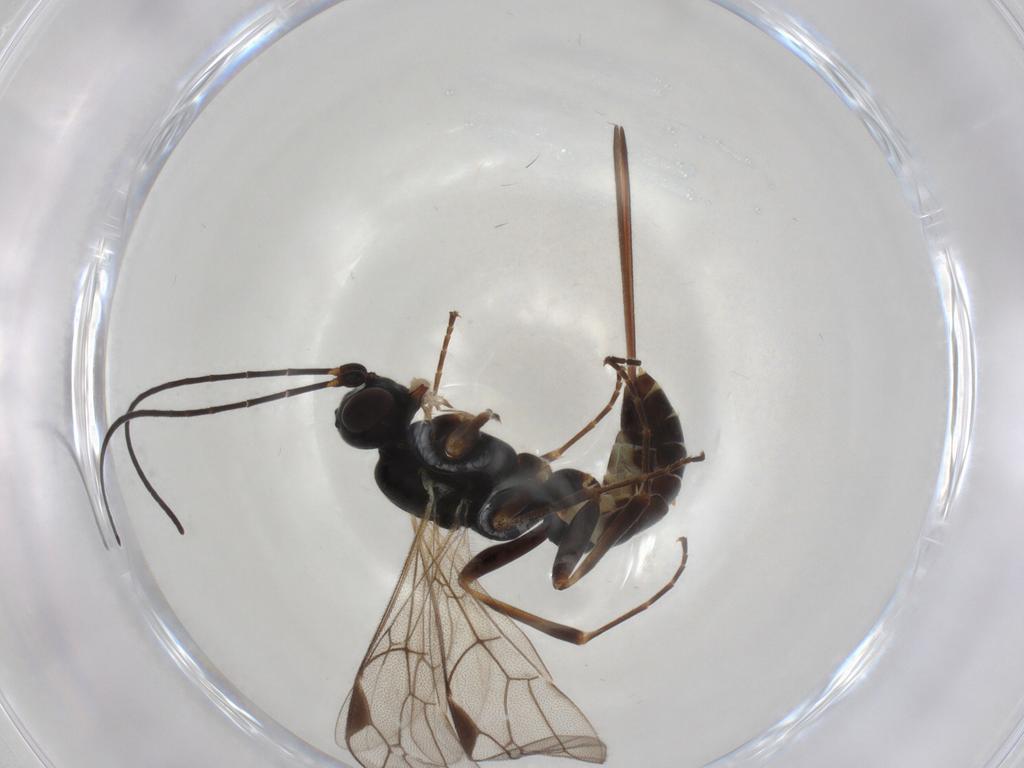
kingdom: Animalia
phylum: Arthropoda
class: Insecta
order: Hymenoptera
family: Ichneumonidae
